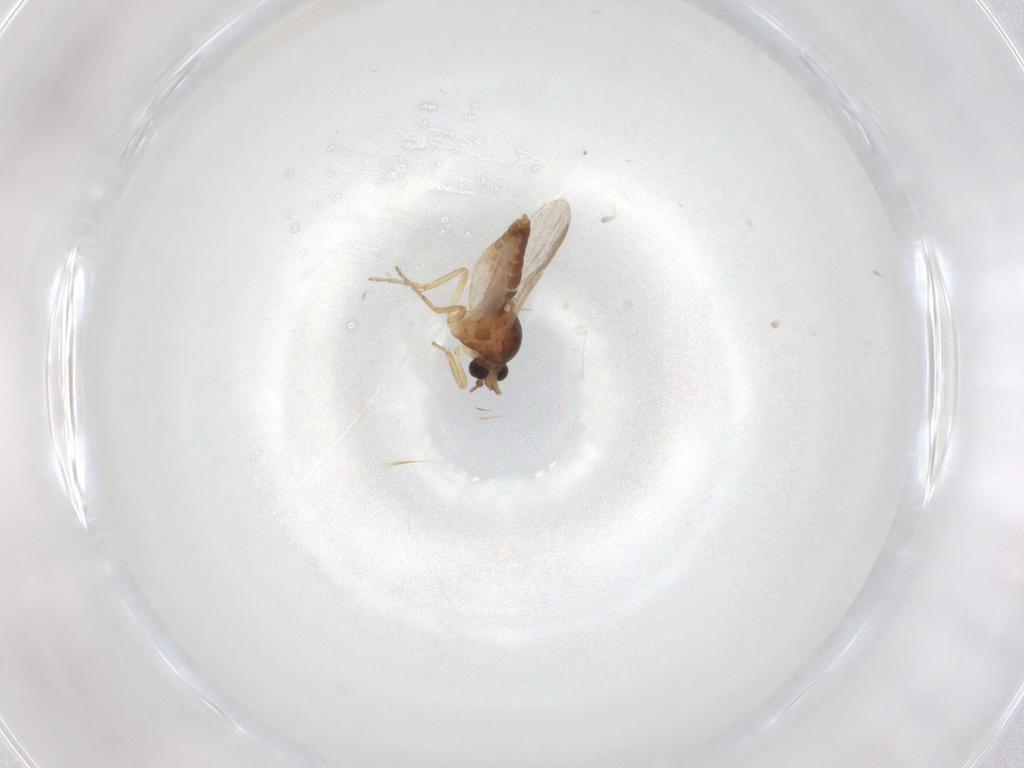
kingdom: Animalia
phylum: Arthropoda
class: Insecta
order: Diptera
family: Ceratopogonidae
